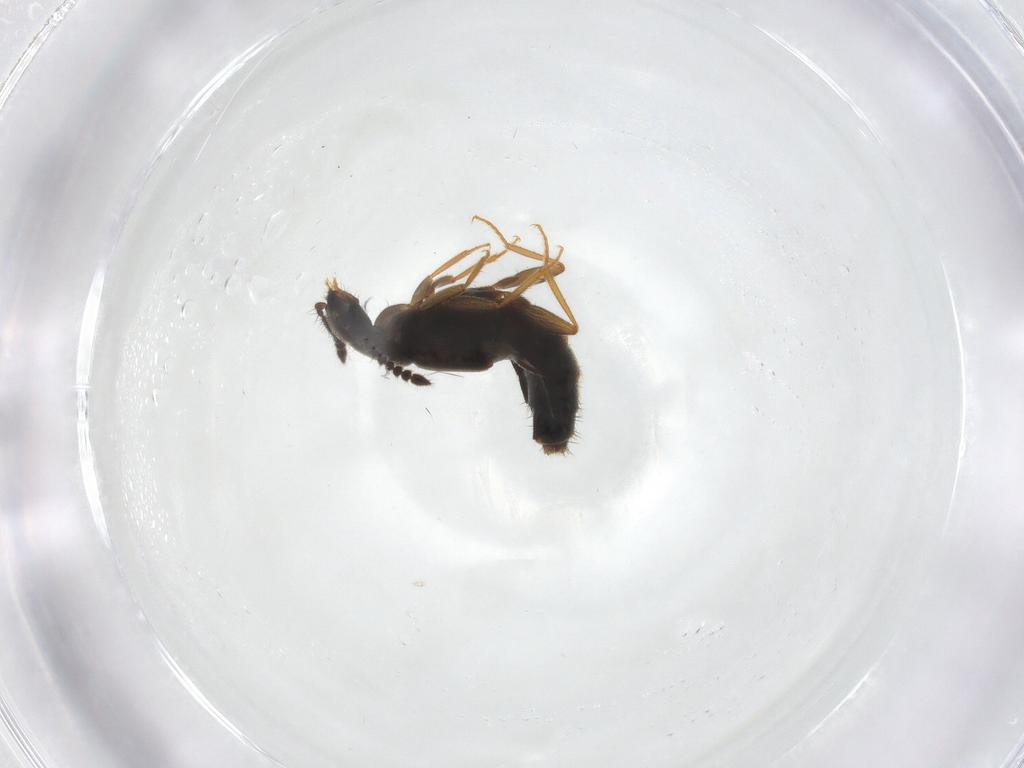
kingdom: Animalia
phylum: Arthropoda
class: Insecta
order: Coleoptera
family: Staphylinidae
